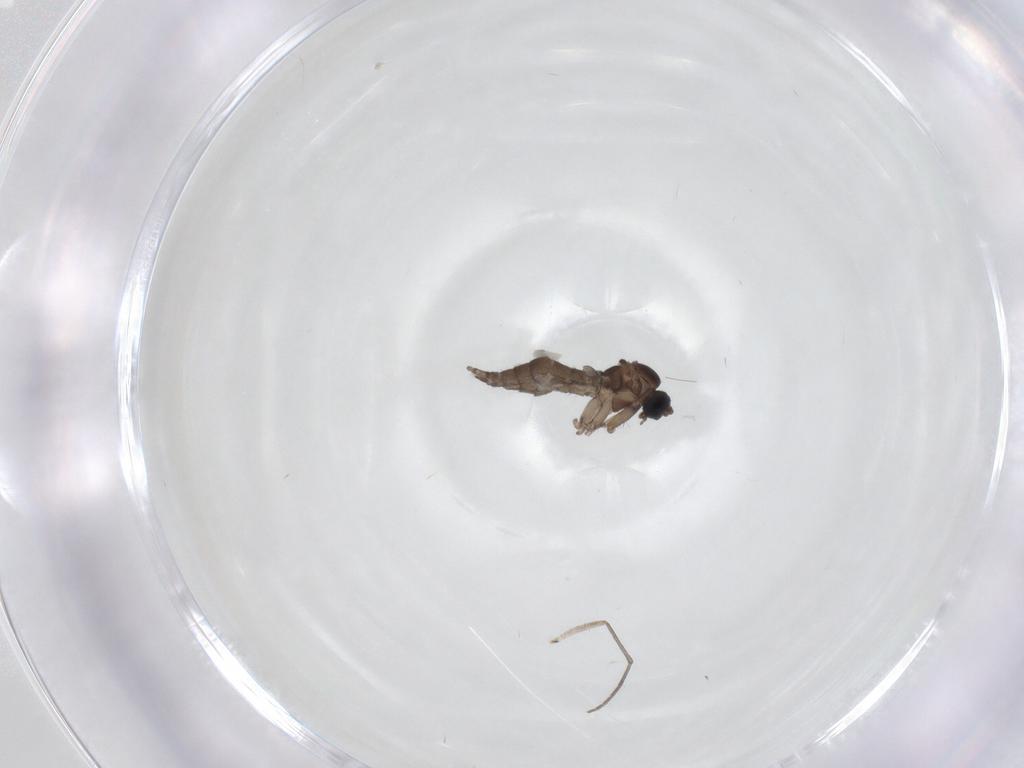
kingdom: Animalia
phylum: Arthropoda
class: Insecta
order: Diptera
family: Sciaridae
